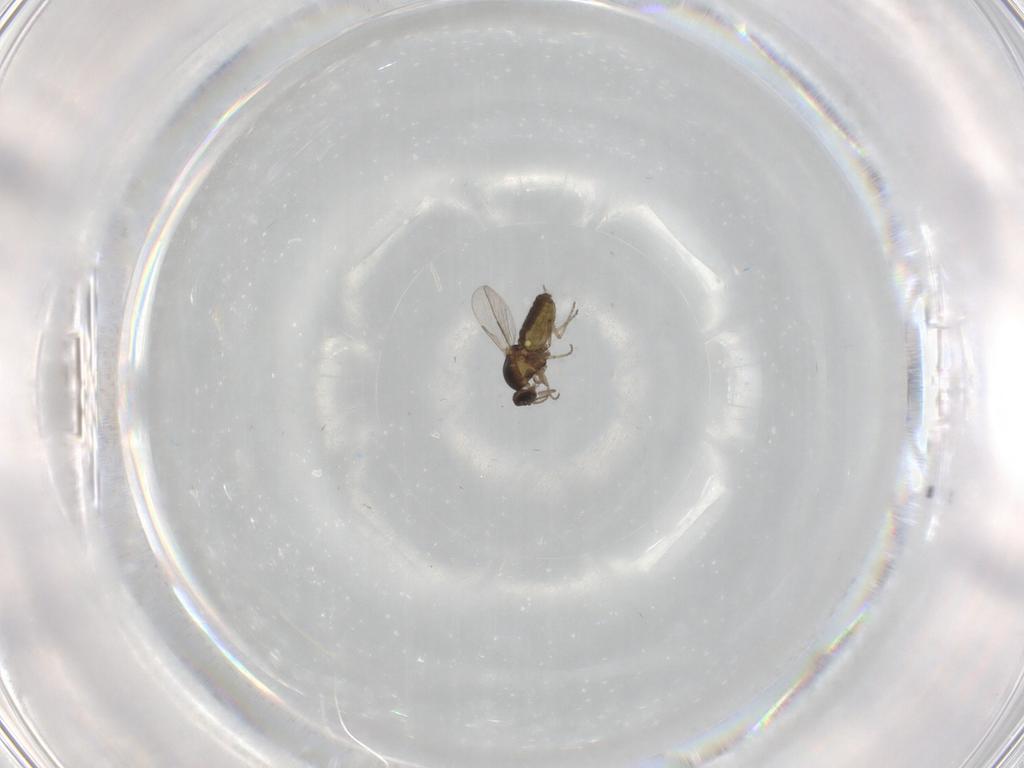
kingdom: Animalia
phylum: Arthropoda
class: Insecta
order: Diptera
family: Ceratopogonidae
